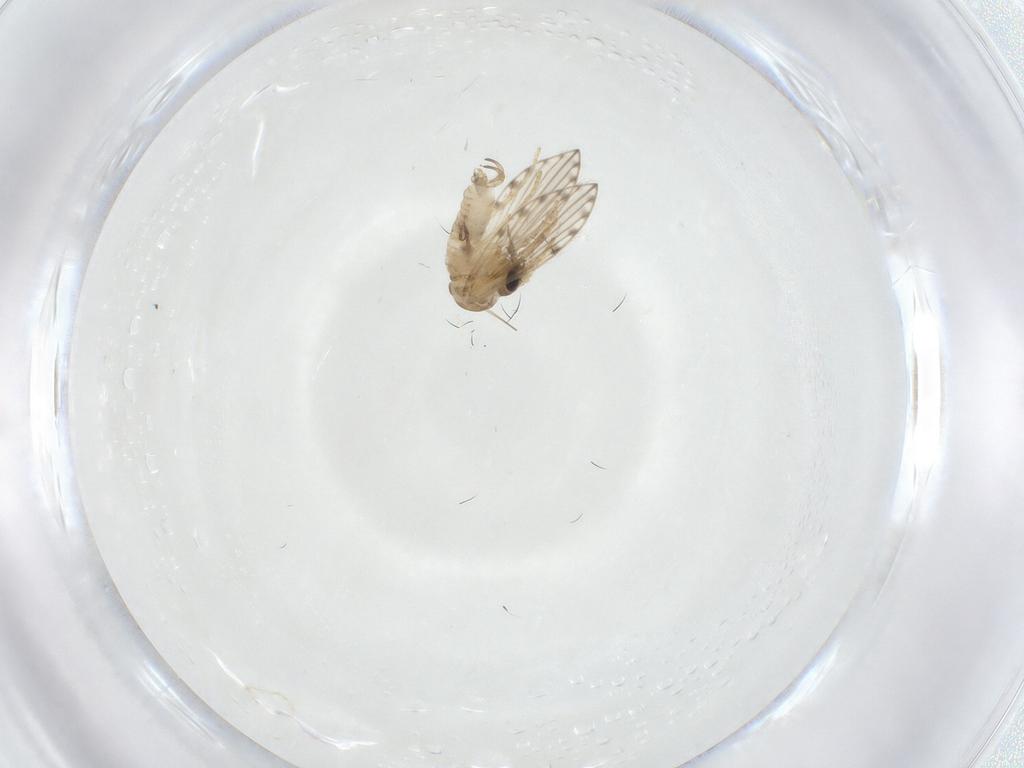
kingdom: Animalia
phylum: Arthropoda
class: Insecta
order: Diptera
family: Psychodidae
